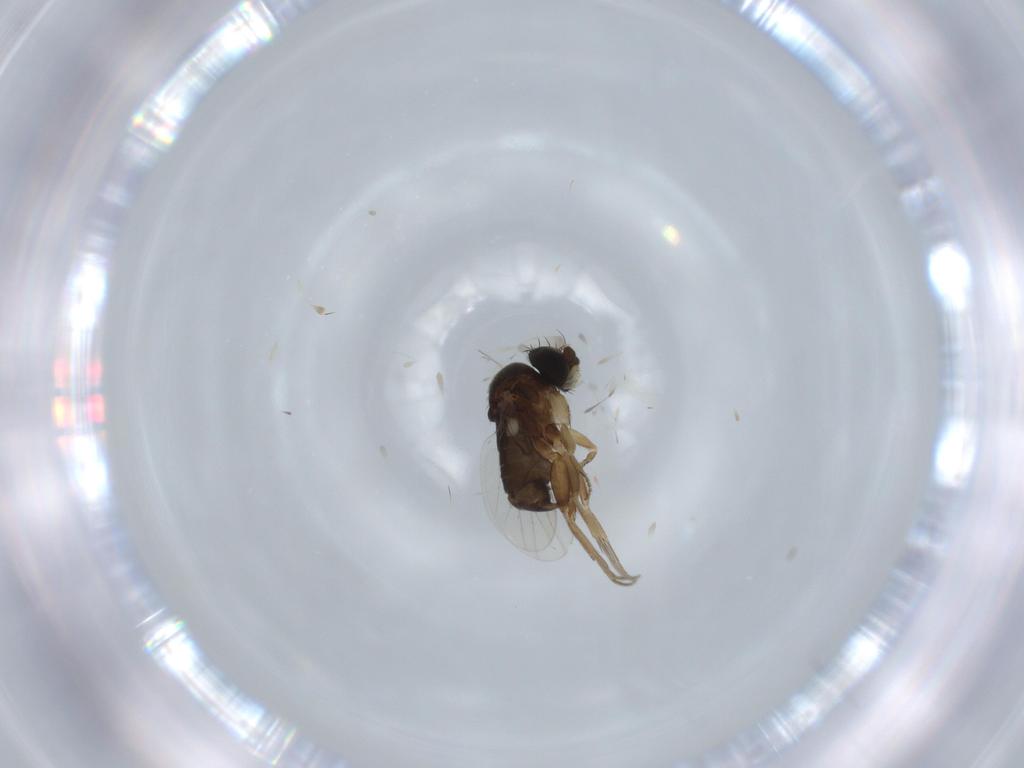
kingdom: Animalia
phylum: Arthropoda
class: Insecta
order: Diptera
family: Phoridae
